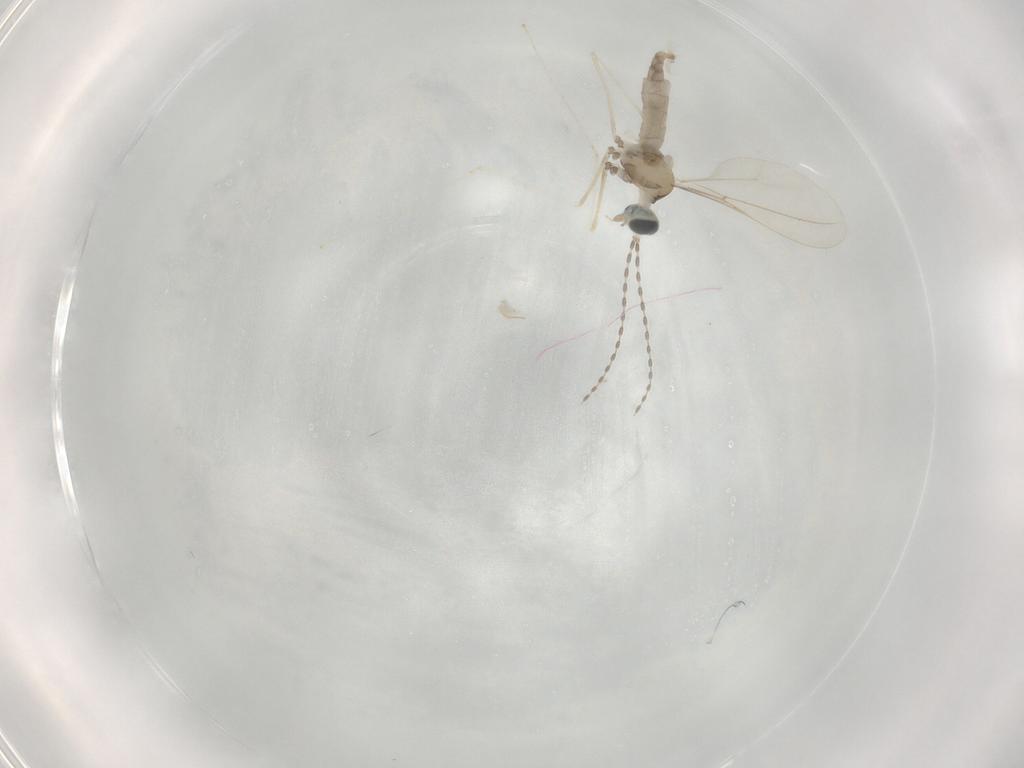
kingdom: Animalia
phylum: Arthropoda
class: Insecta
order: Diptera
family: Cecidomyiidae
